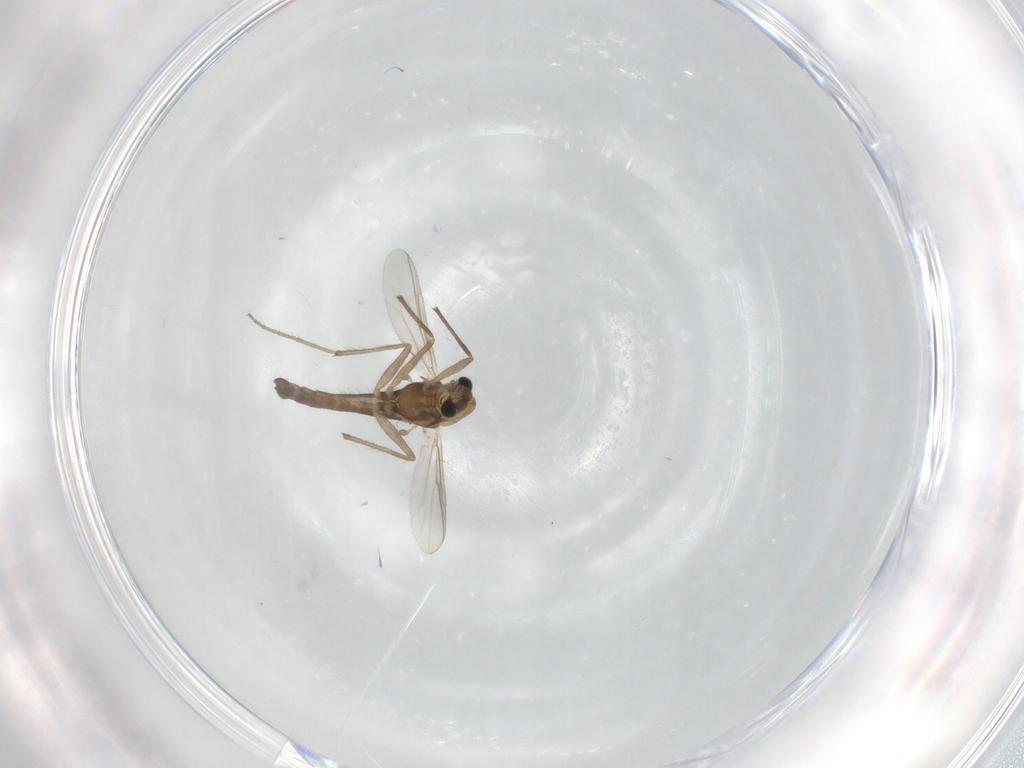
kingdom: Animalia
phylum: Arthropoda
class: Insecta
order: Diptera
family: Chironomidae
